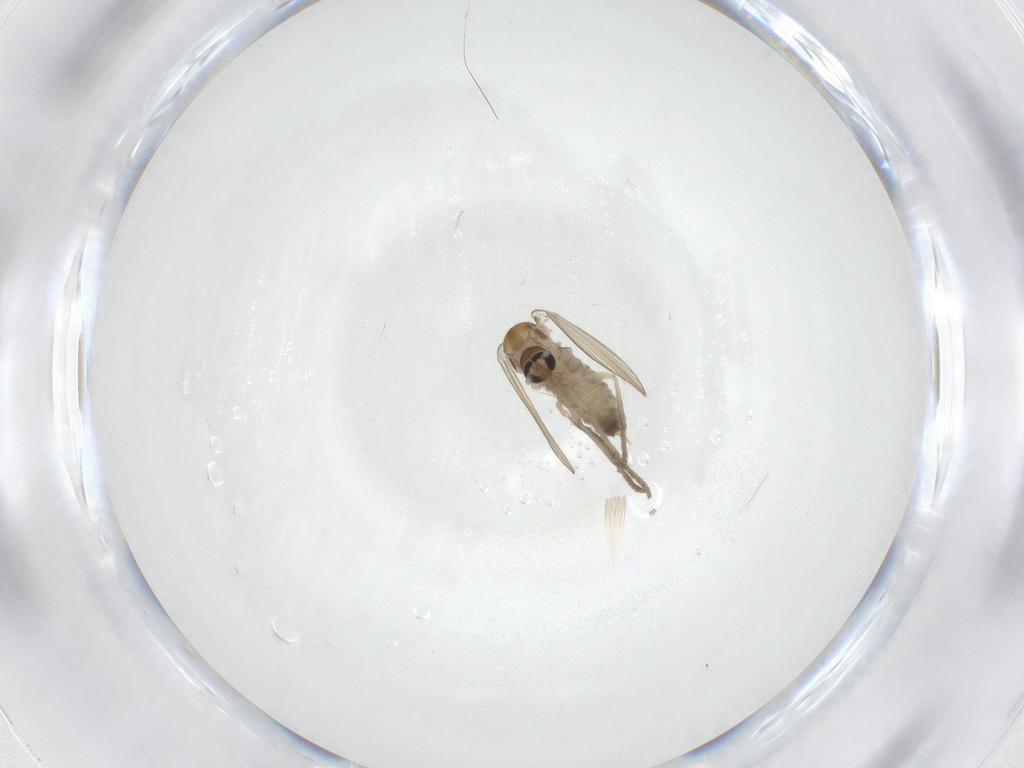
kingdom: Animalia
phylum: Arthropoda
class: Insecta
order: Diptera
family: Psychodidae
